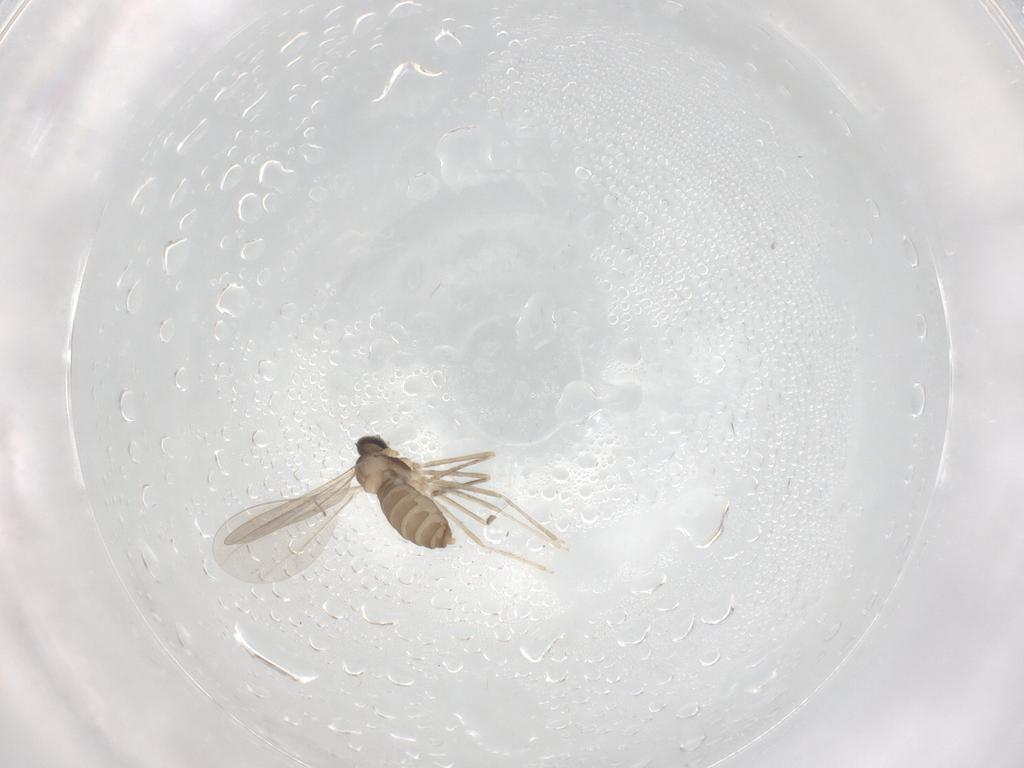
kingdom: Animalia
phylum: Arthropoda
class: Insecta
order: Diptera
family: Cecidomyiidae
